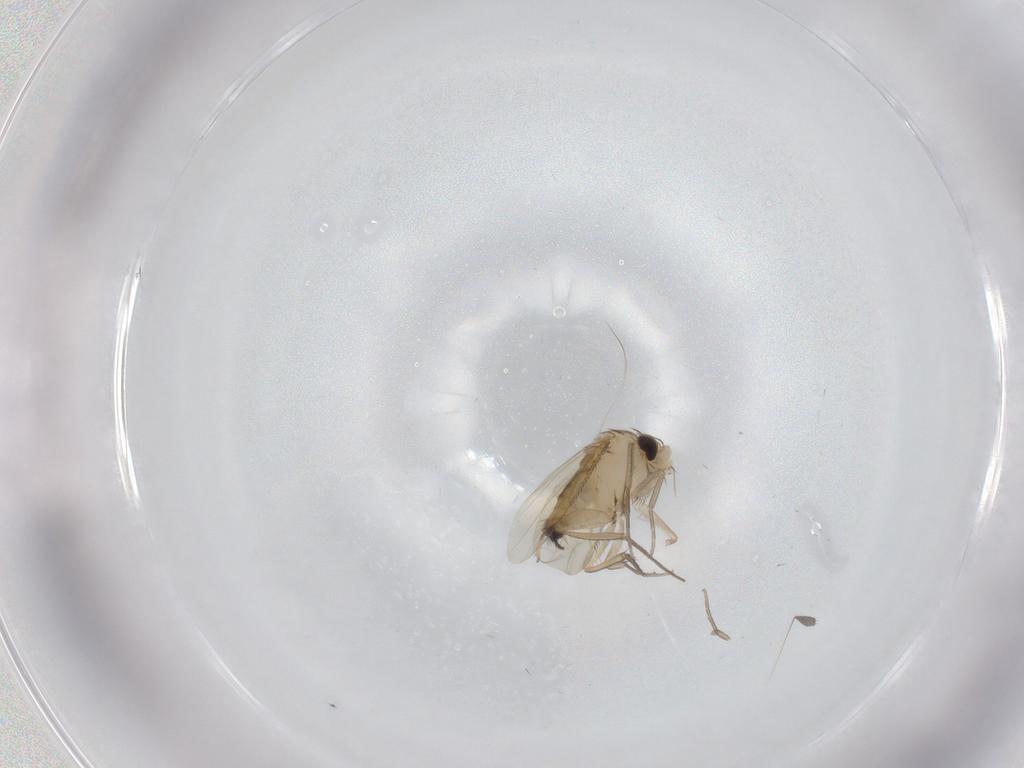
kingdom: Animalia
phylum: Arthropoda
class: Insecta
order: Diptera
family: Phoridae
